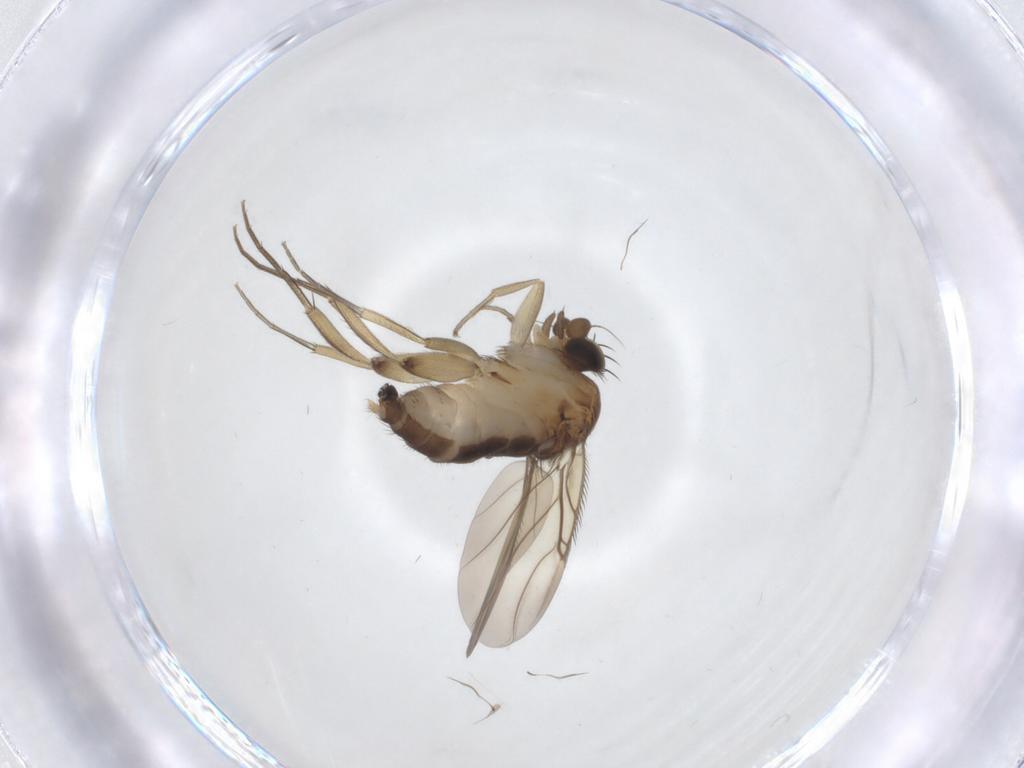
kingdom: Animalia
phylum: Arthropoda
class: Insecta
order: Diptera
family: Phoridae
